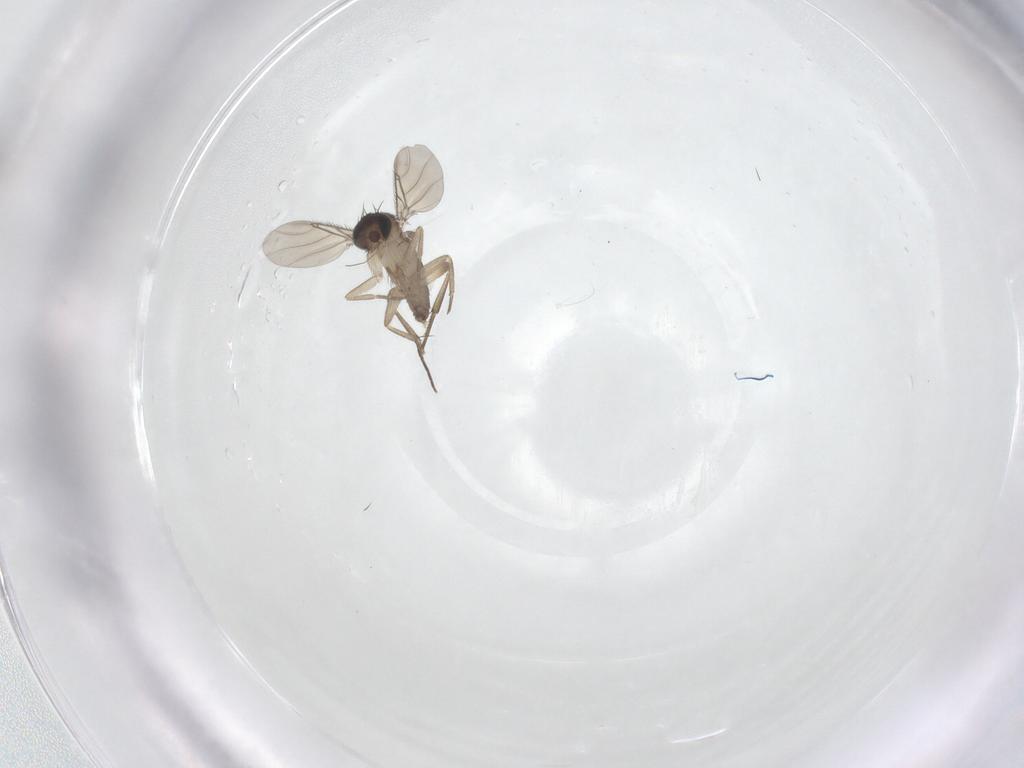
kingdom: Animalia
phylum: Arthropoda
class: Insecta
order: Diptera
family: Phoridae
